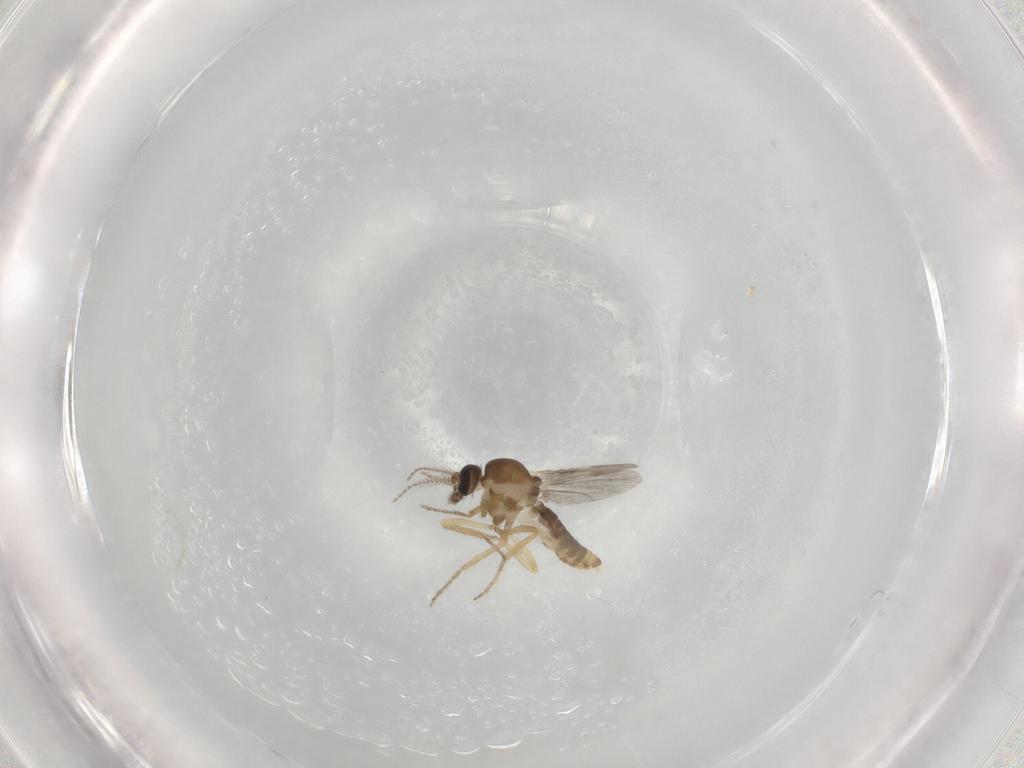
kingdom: Animalia
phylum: Arthropoda
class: Insecta
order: Diptera
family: Ceratopogonidae
